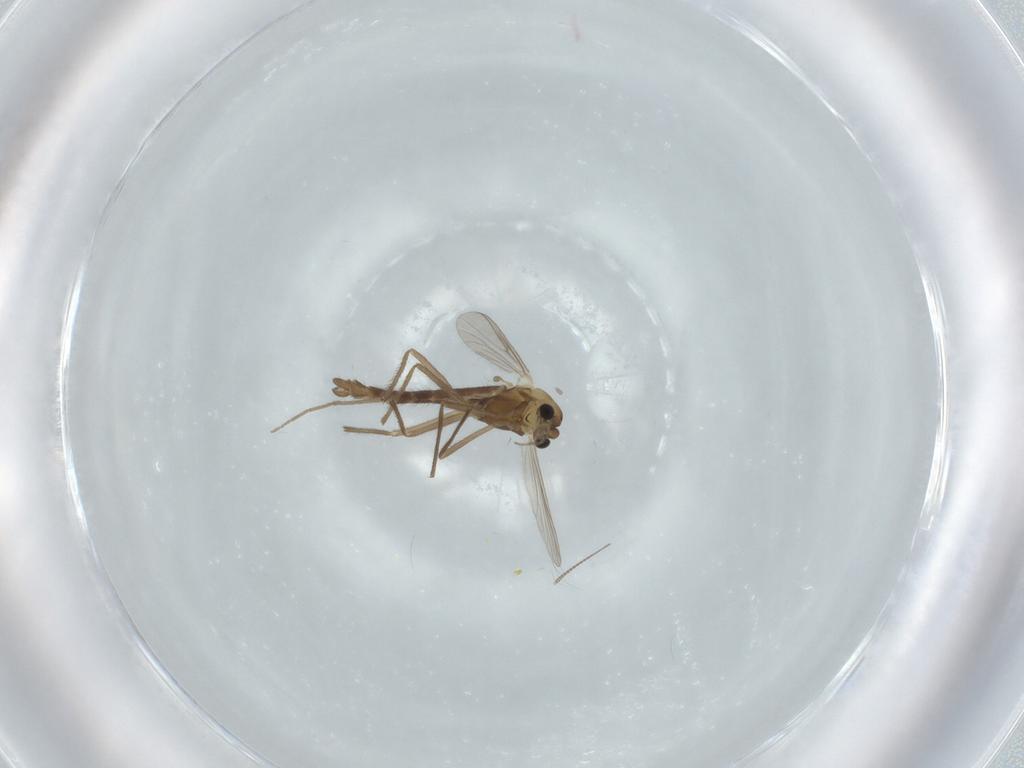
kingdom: Animalia
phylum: Arthropoda
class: Insecta
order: Diptera
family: Chironomidae
